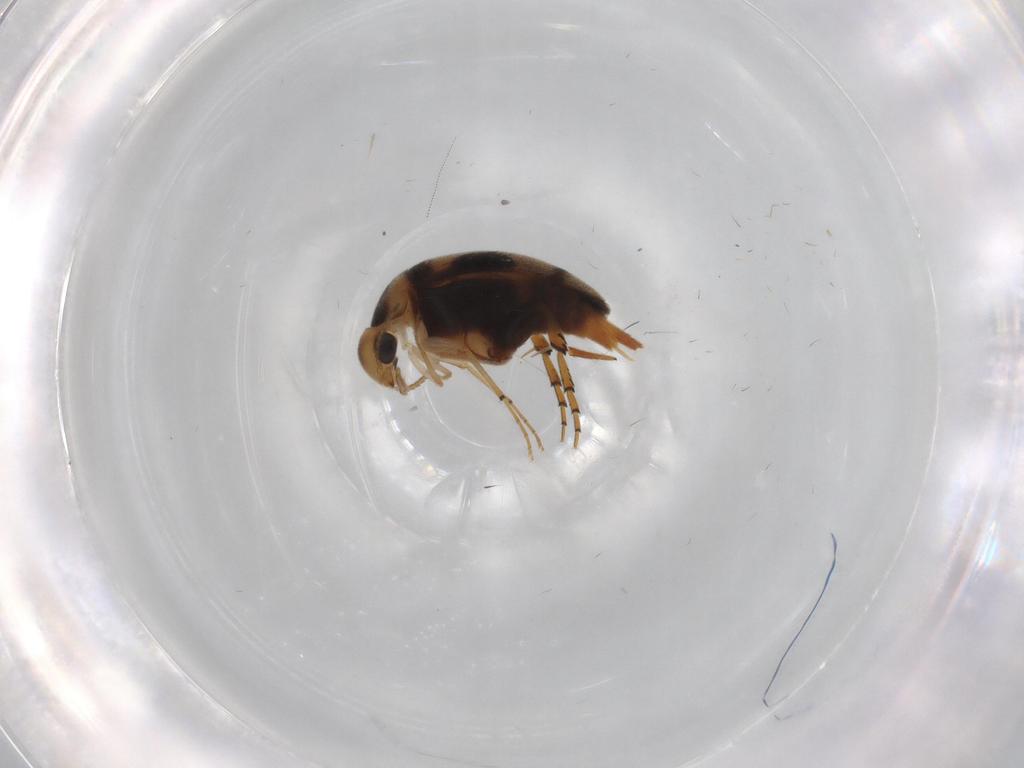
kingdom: Animalia
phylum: Arthropoda
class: Insecta
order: Coleoptera
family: Mordellidae
